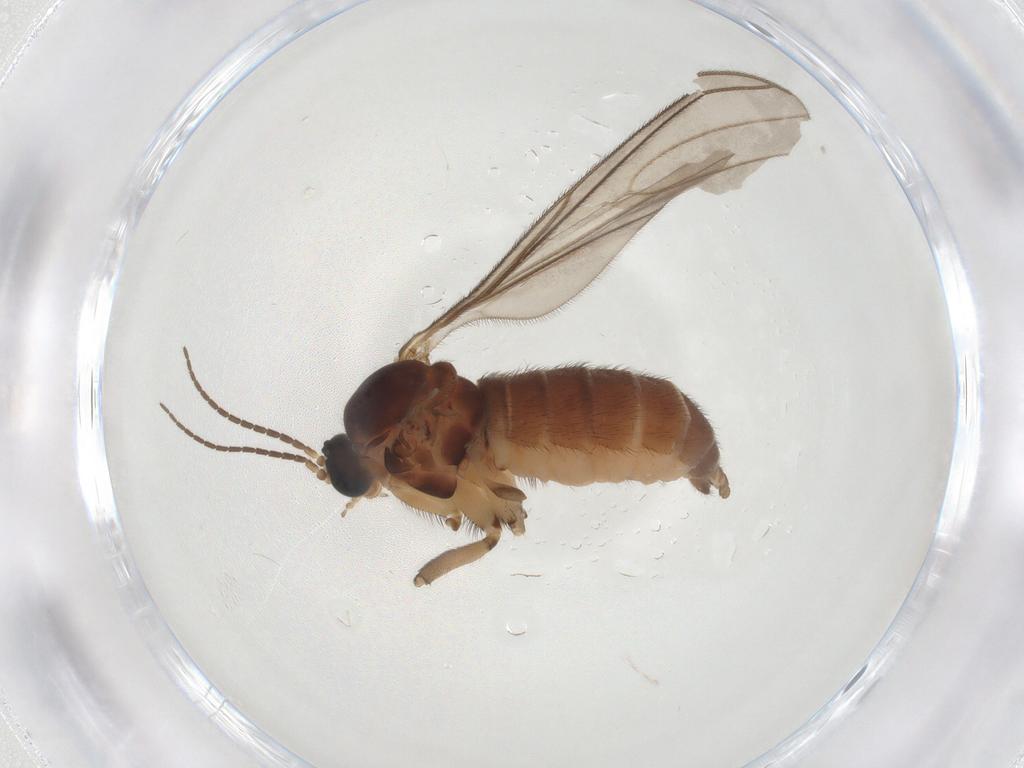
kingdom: Animalia
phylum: Arthropoda
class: Insecta
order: Diptera
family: Sciaridae
